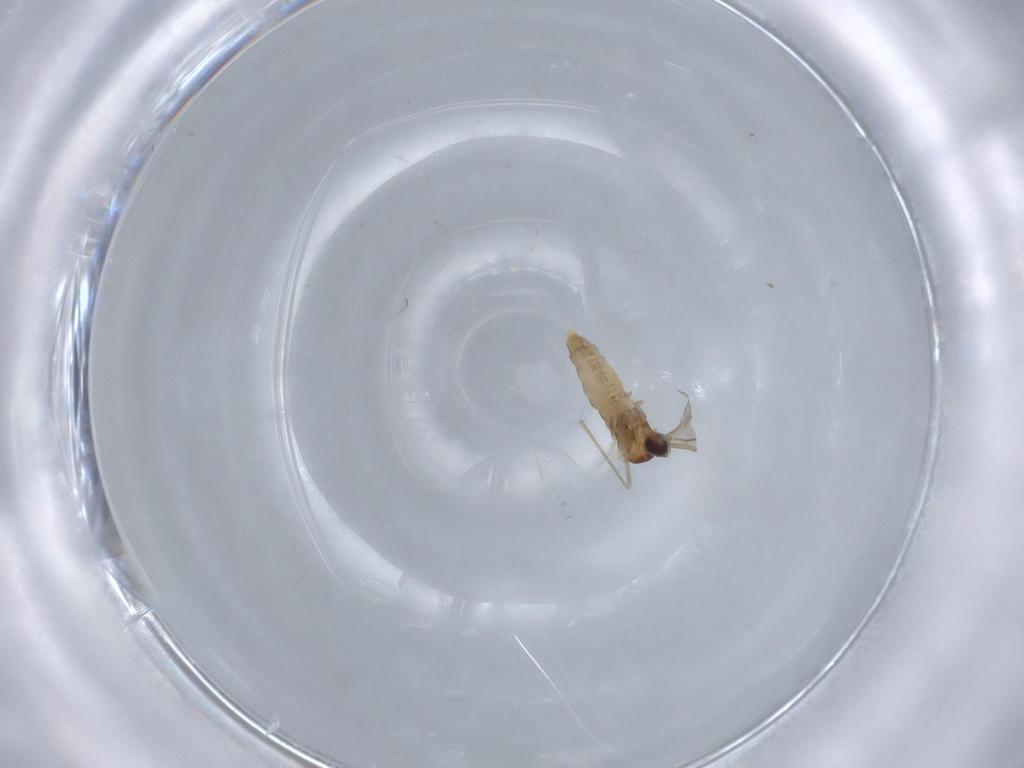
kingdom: Animalia
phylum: Arthropoda
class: Insecta
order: Diptera
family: Cecidomyiidae
